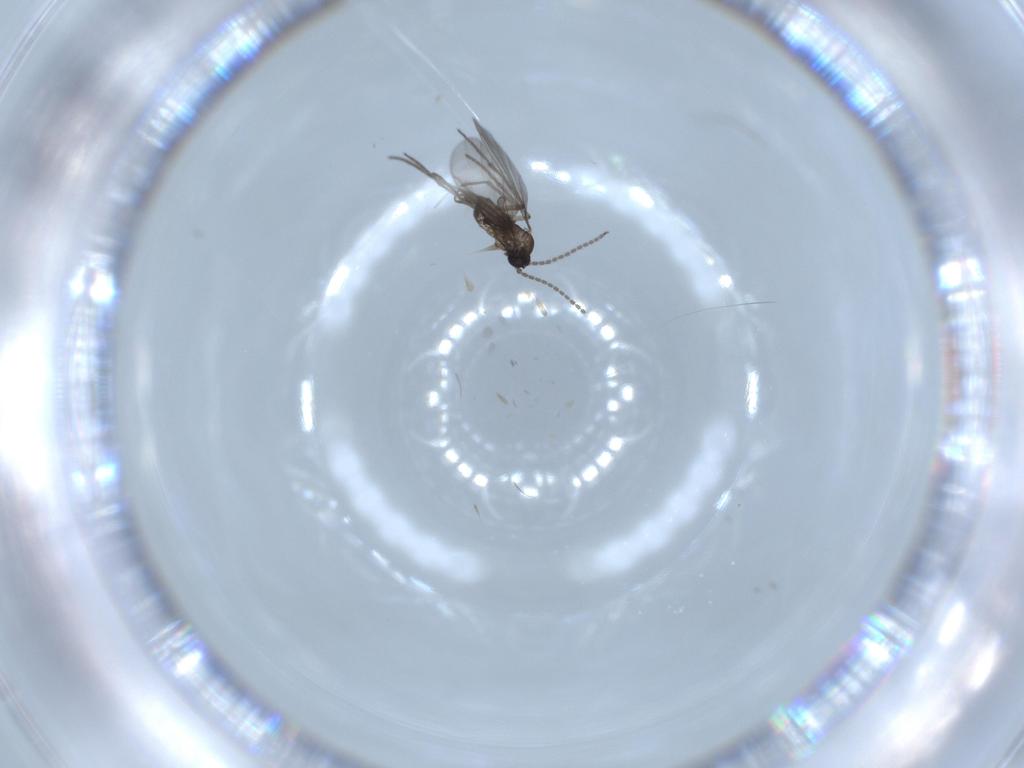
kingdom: Animalia
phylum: Arthropoda
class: Insecta
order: Diptera
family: Sciaridae
